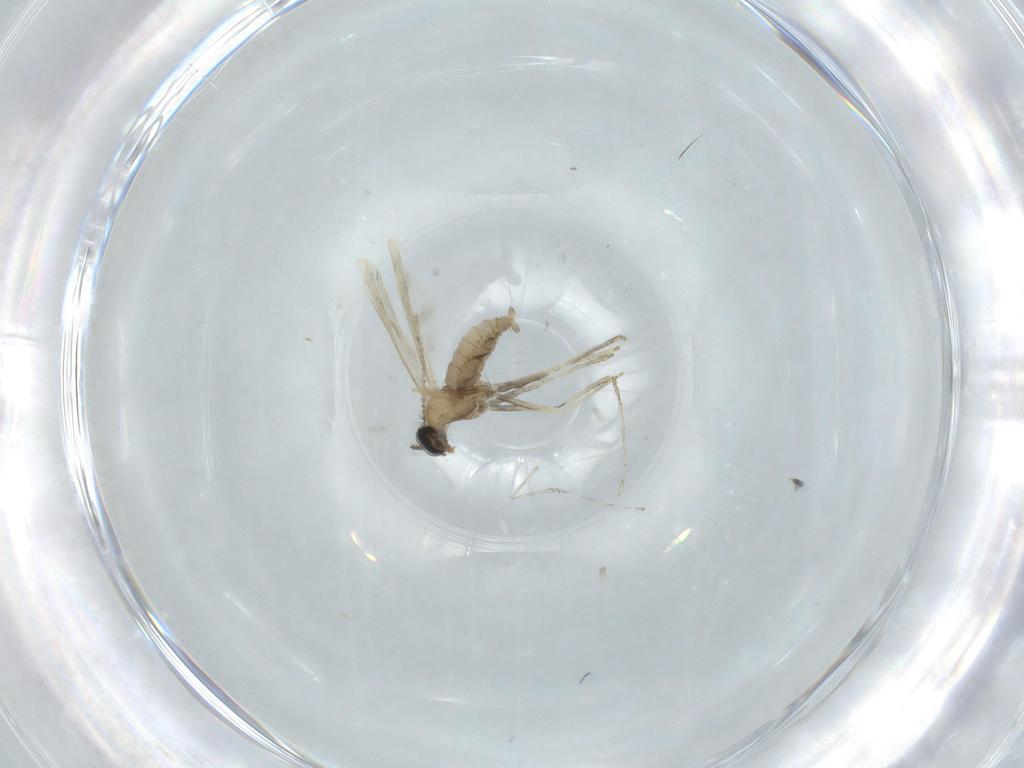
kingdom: Animalia
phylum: Arthropoda
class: Insecta
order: Diptera
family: Cecidomyiidae
